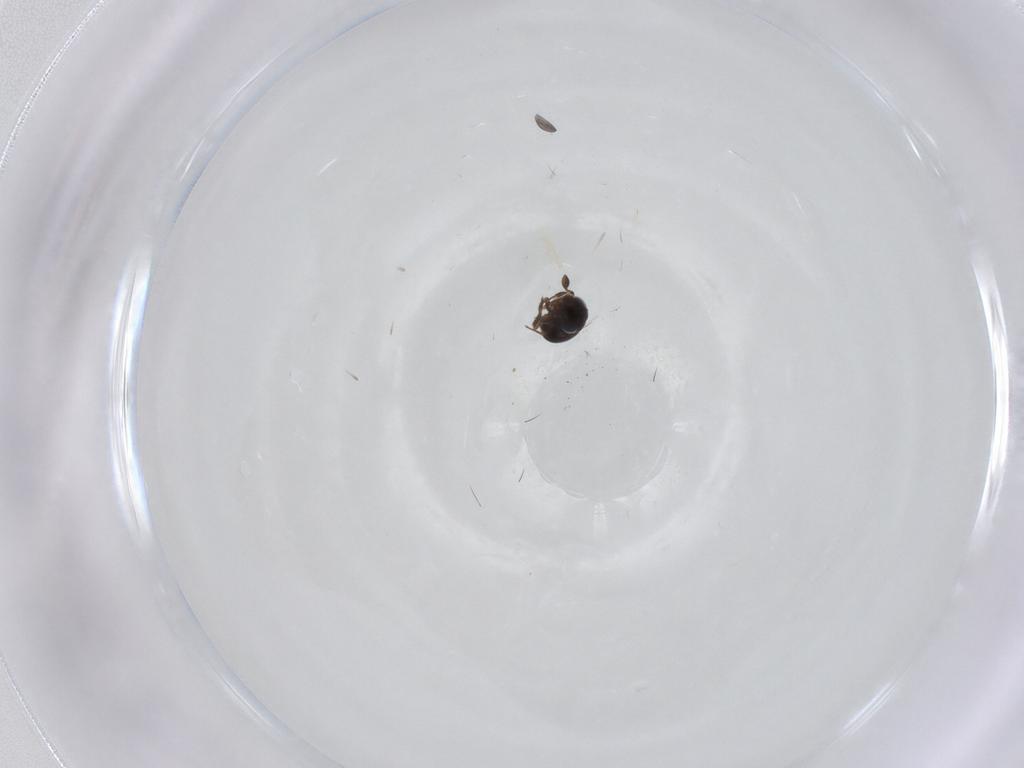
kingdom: Animalia
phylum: Arthropoda
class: Insecta
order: Hymenoptera
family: Scelionidae
